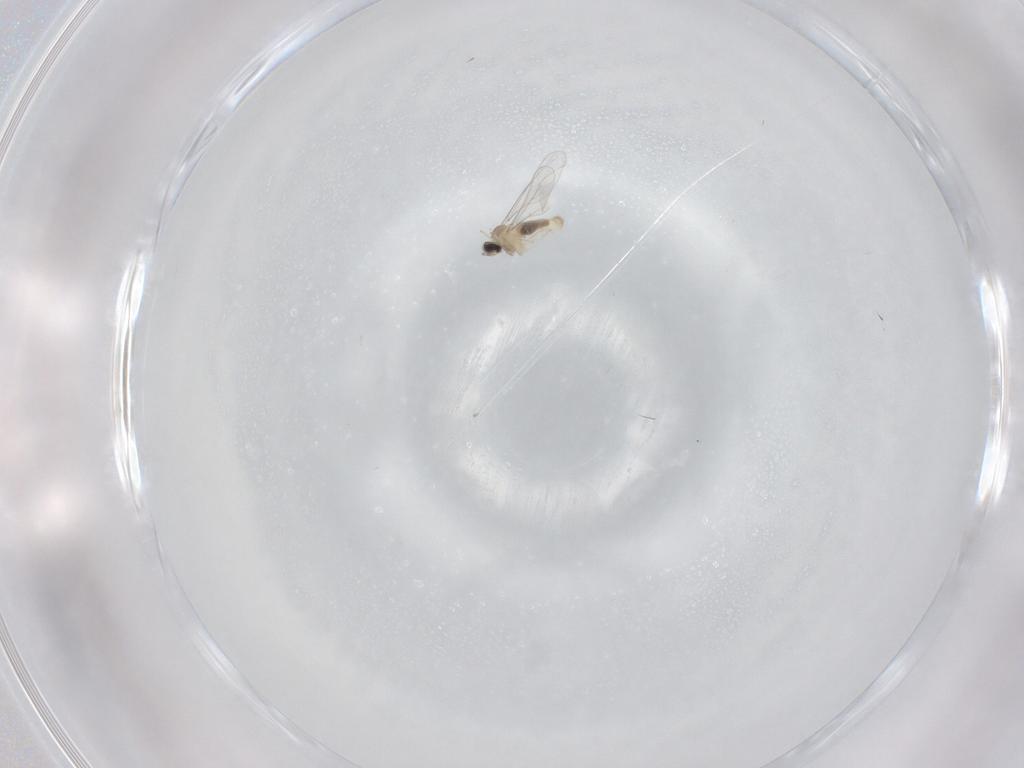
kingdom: Animalia
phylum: Arthropoda
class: Insecta
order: Diptera
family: Cecidomyiidae
